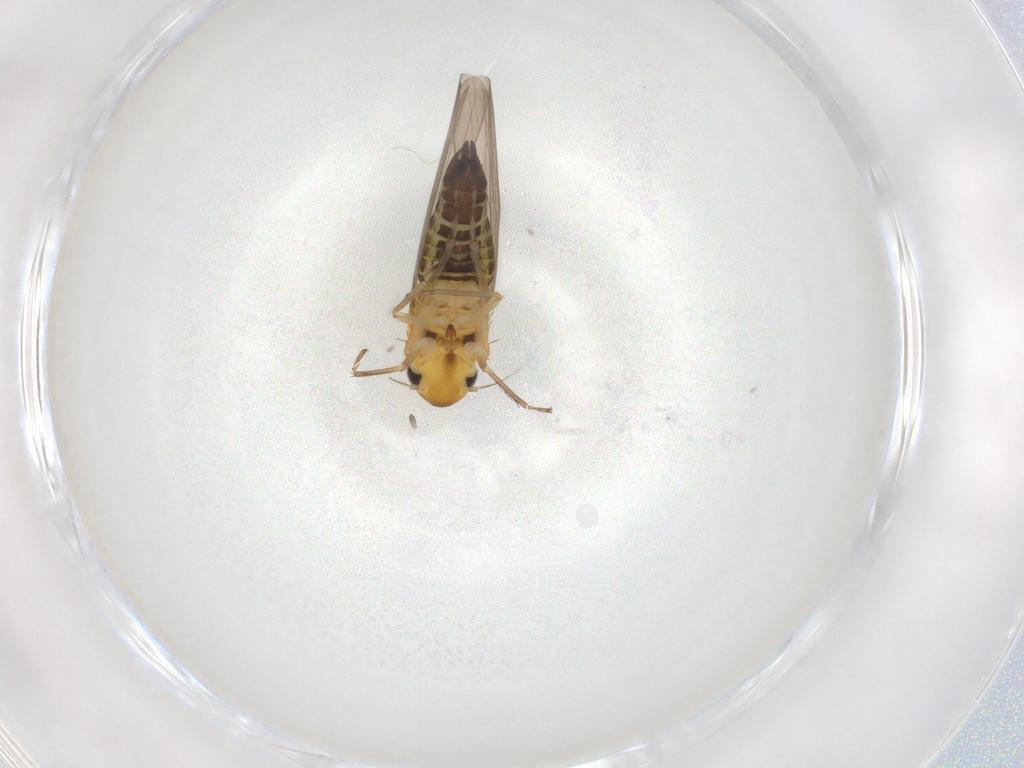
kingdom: Animalia
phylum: Arthropoda
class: Insecta
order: Hemiptera
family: Cicadellidae
